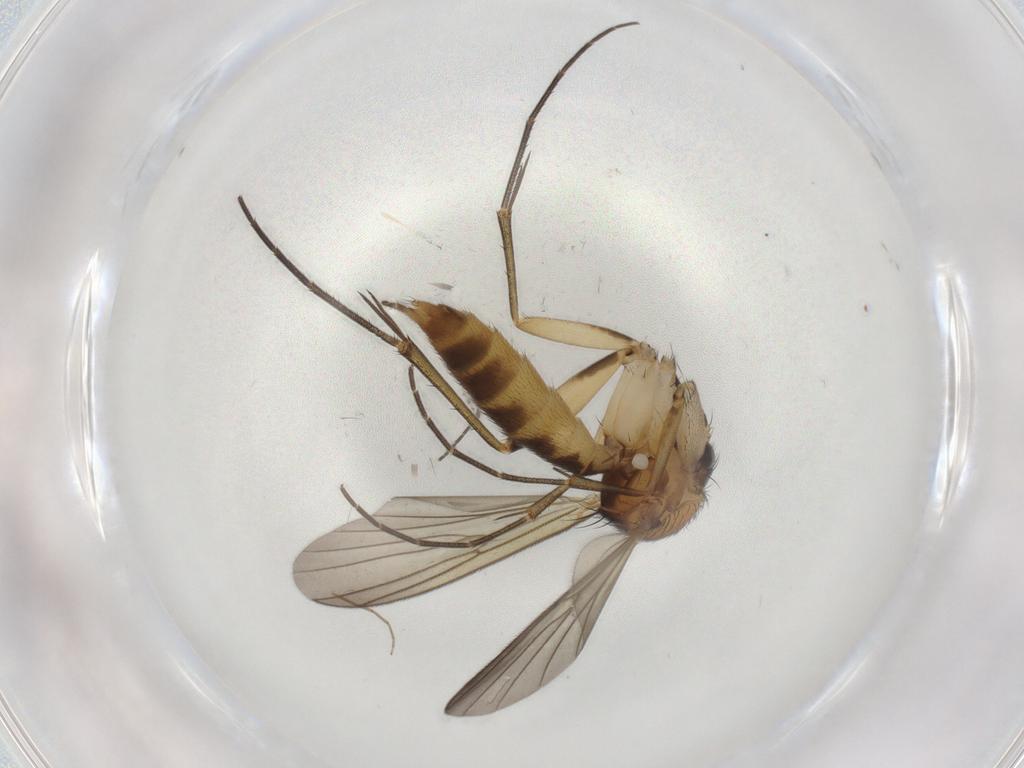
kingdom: Animalia
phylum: Arthropoda
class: Insecta
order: Diptera
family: Mycetophilidae
